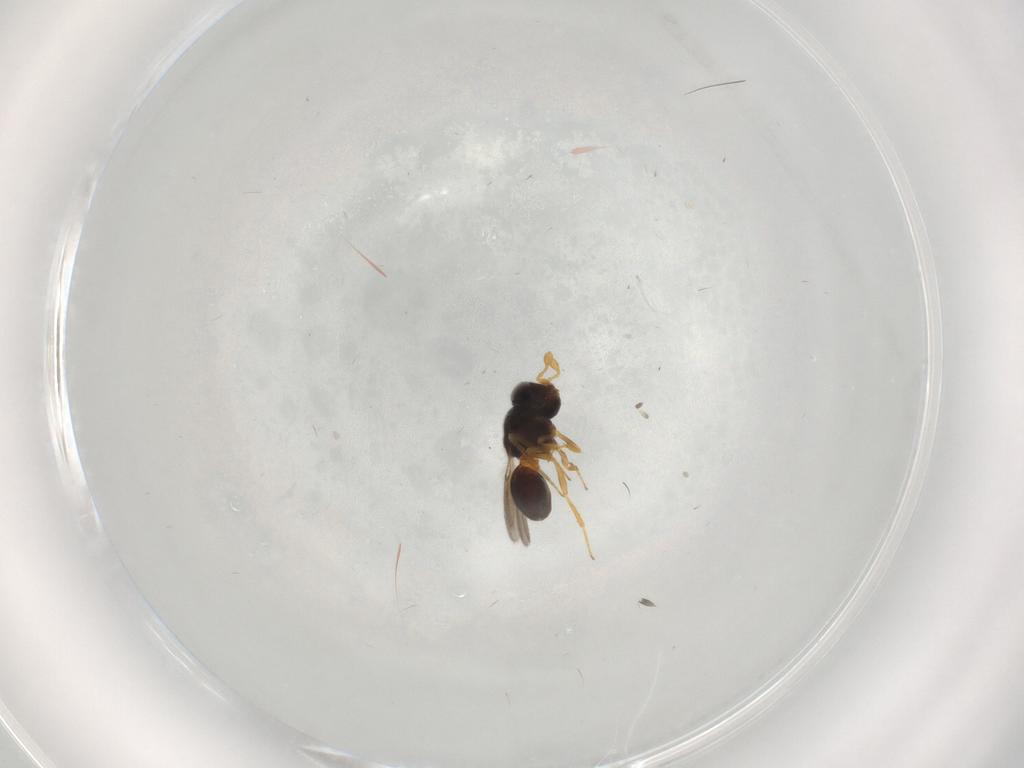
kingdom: Animalia
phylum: Arthropoda
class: Insecta
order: Hymenoptera
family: Scelionidae
